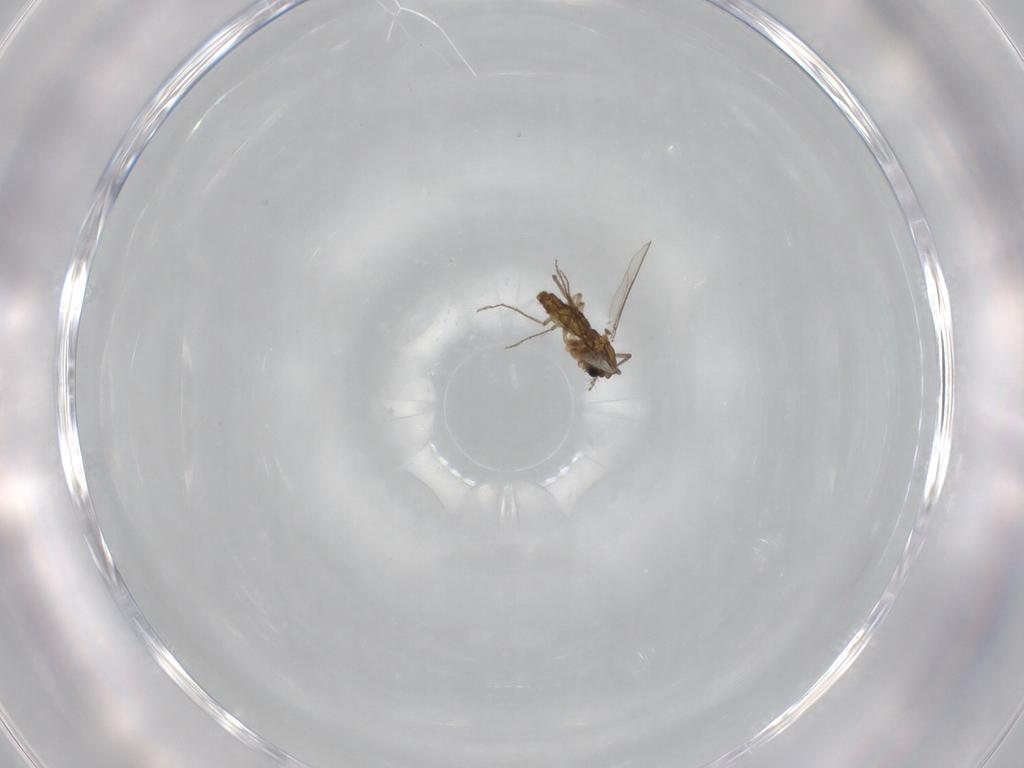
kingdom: Animalia
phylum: Arthropoda
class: Insecta
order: Diptera
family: Chironomidae
